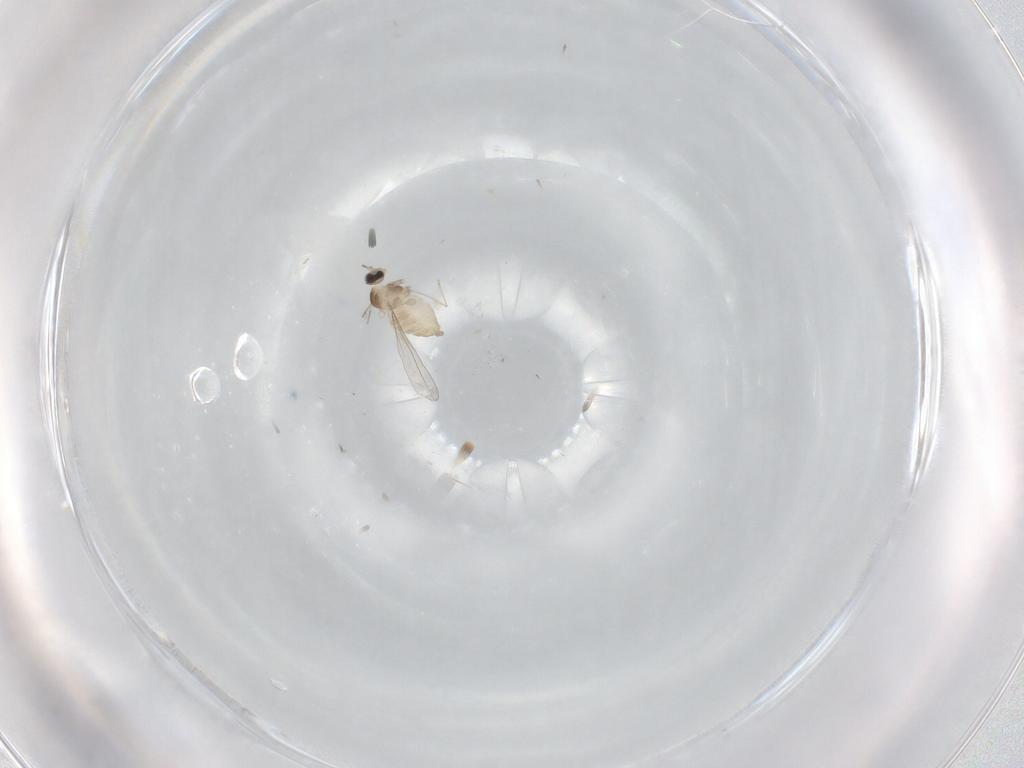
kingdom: Animalia
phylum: Arthropoda
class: Insecta
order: Diptera
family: Cecidomyiidae
